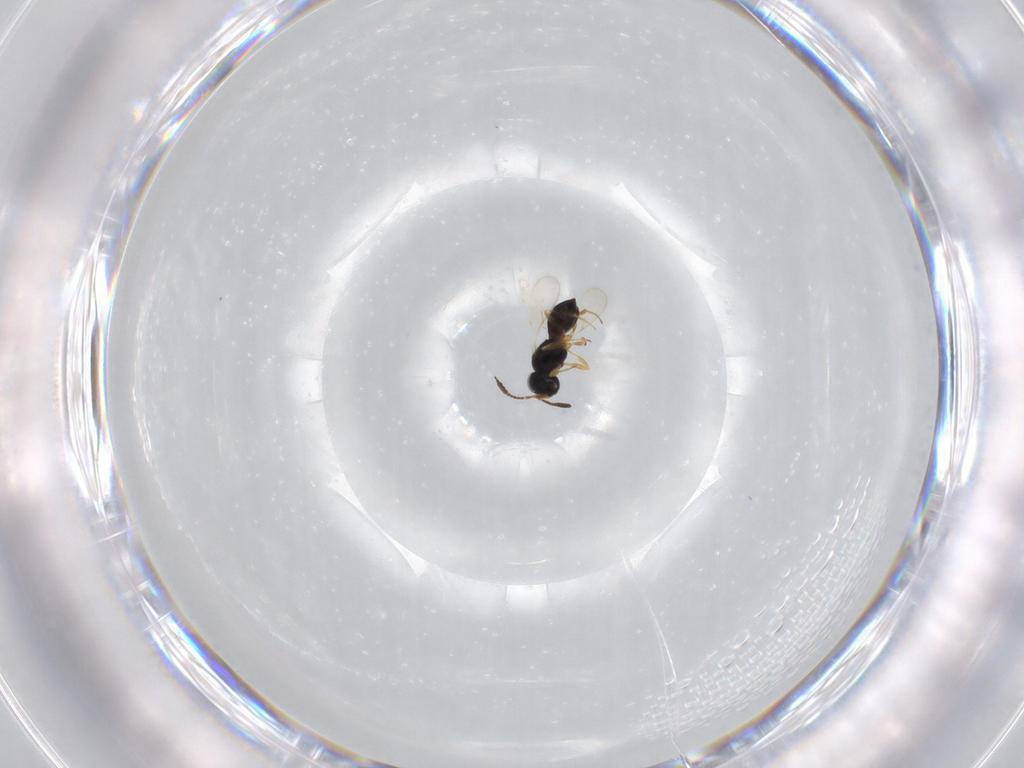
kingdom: Animalia
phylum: Arthropoda
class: Insecta
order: Hymenoptera
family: Scelionidae
